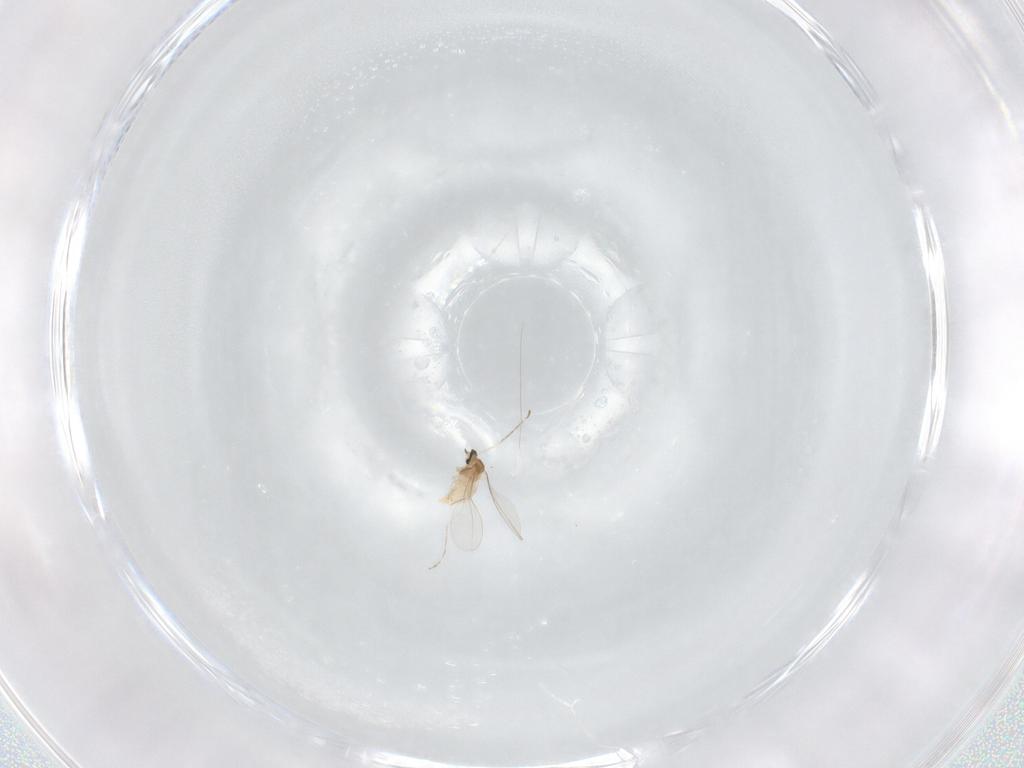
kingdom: Animalia
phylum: Arthropoda
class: Insecta
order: Diptera
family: Cecidomyiidae
